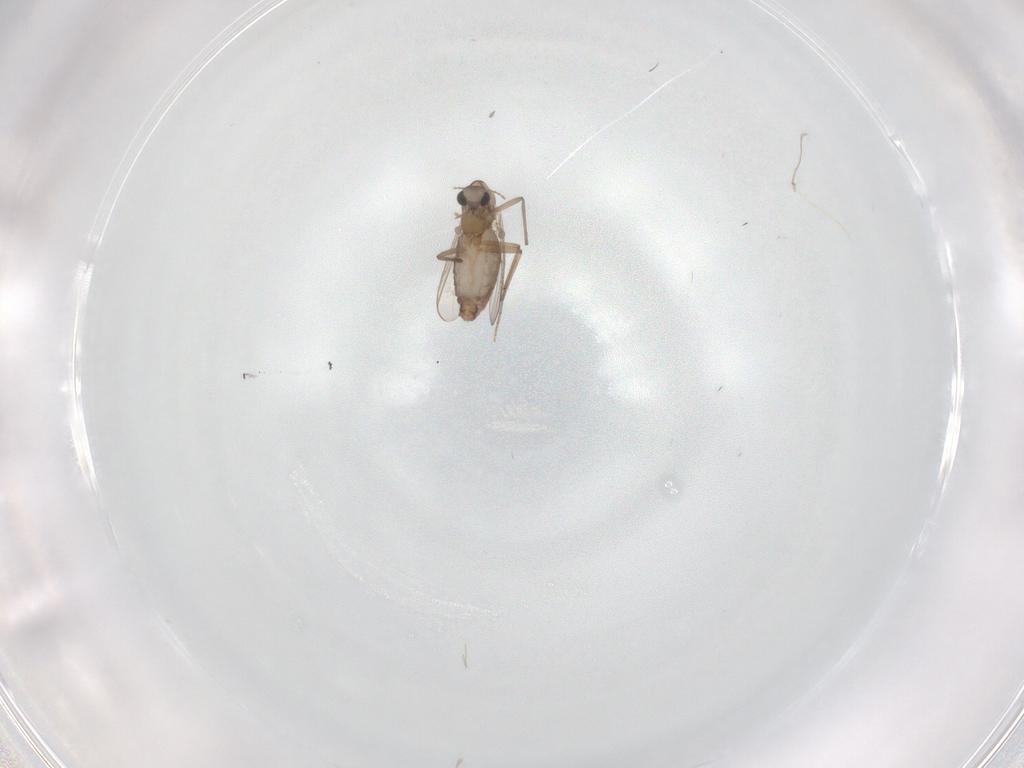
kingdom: Animalia
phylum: Arthropoda
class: Insecta
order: Diptera
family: Chironomidae
